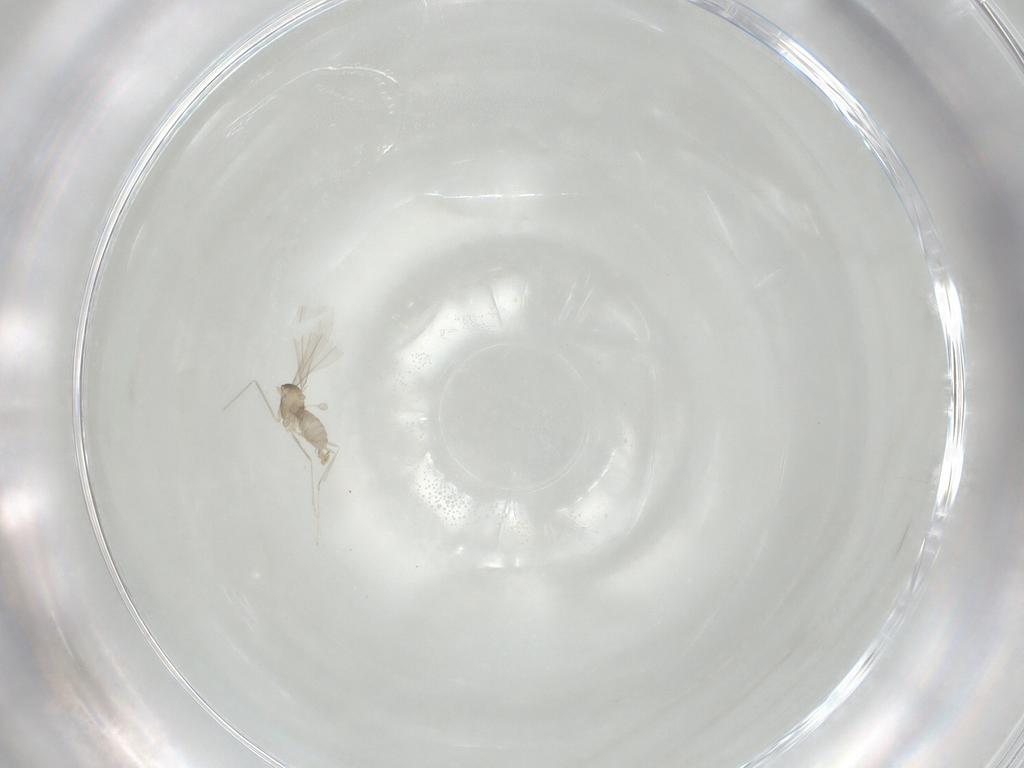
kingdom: Animalia
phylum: Arthropoda
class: Insecta
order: Diptera
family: Cecidomyiidae
